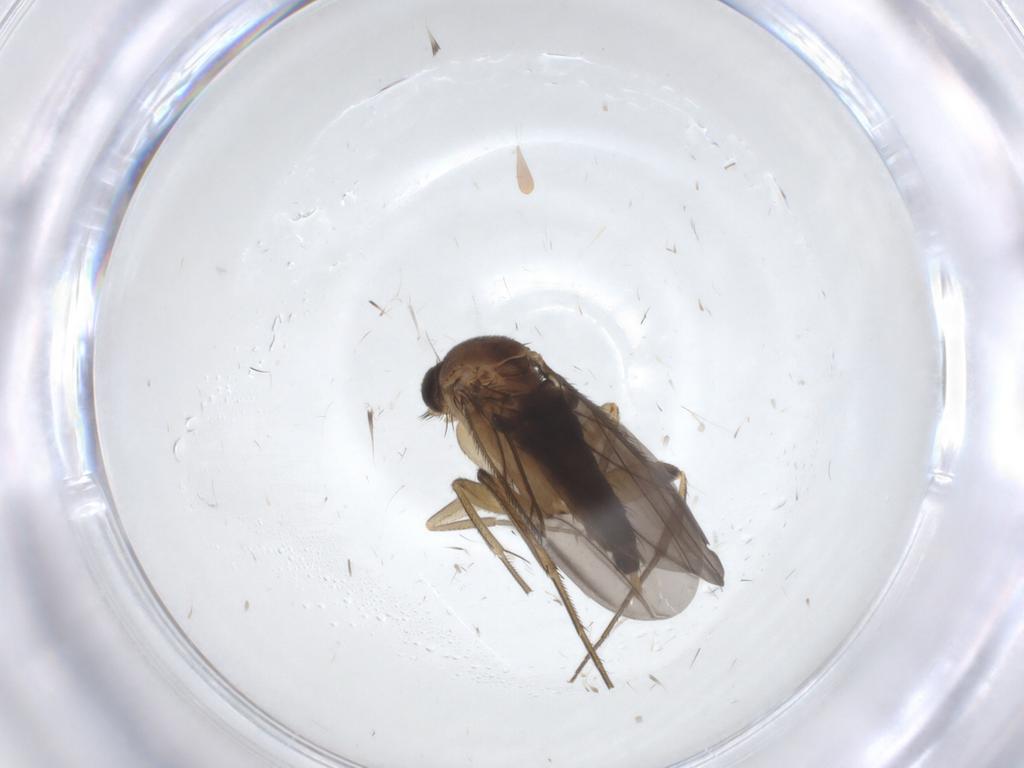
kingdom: Animalia
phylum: Arthropoda
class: Insecta
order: Diptera
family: Phoridae
